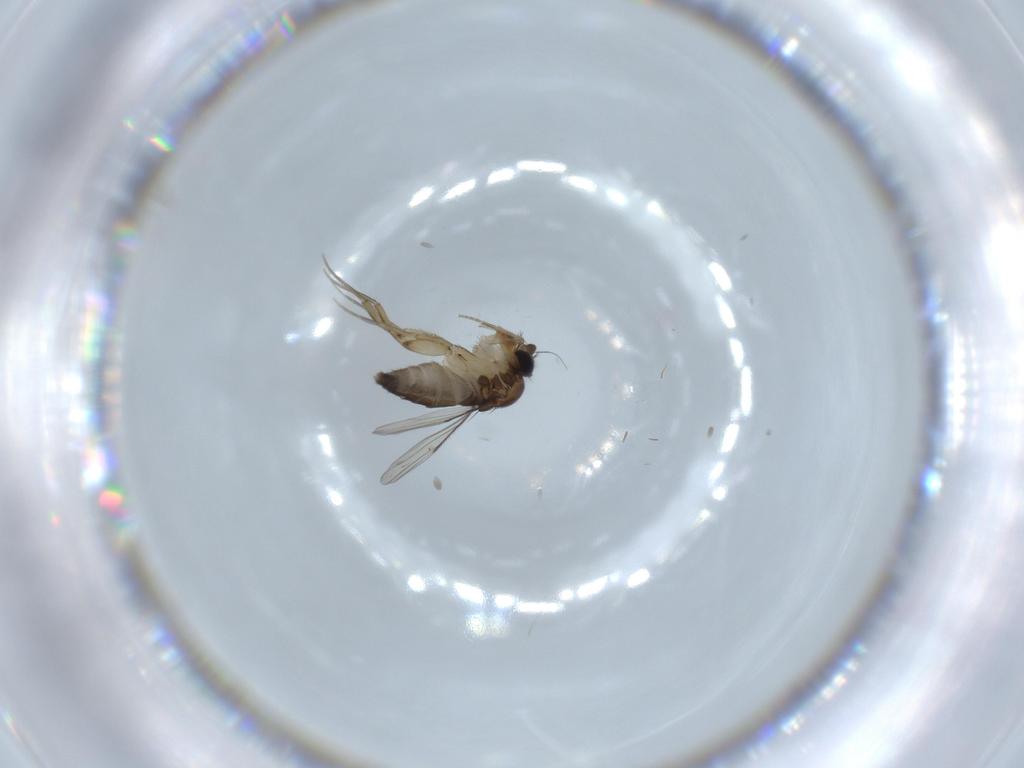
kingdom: Animalia
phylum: Arthropoda
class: Insecta
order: Diptera
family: Phoridae
